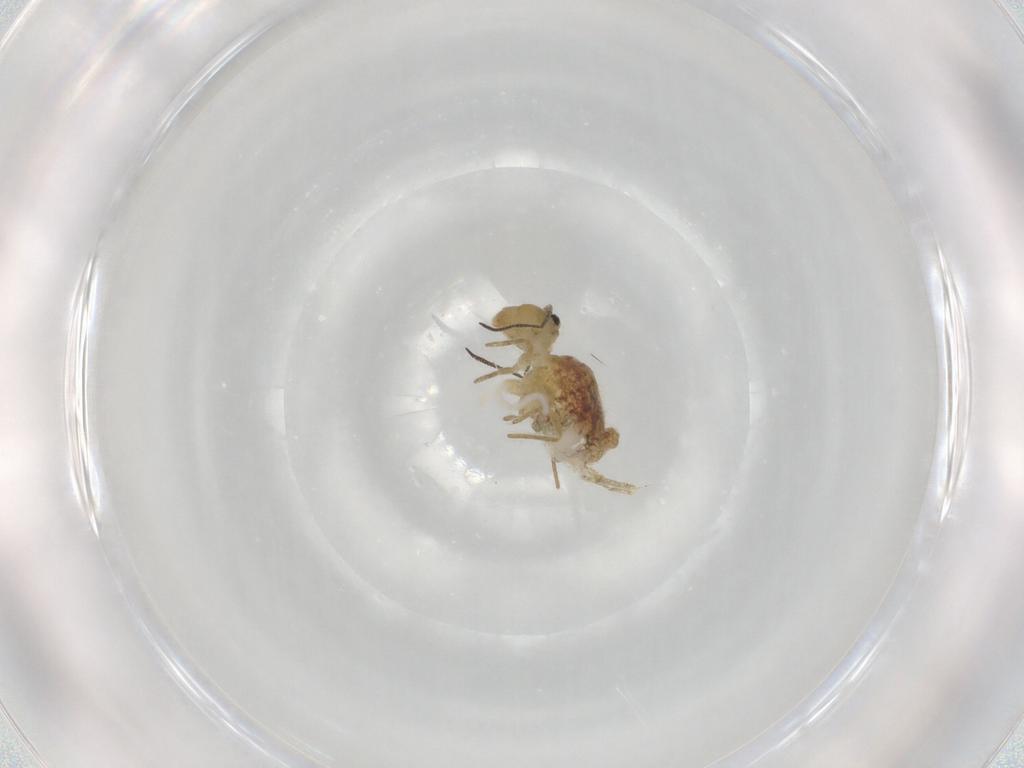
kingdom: Animalia
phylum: Arthropoda
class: Collembola
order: Symphypleona
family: Sminthuridae
